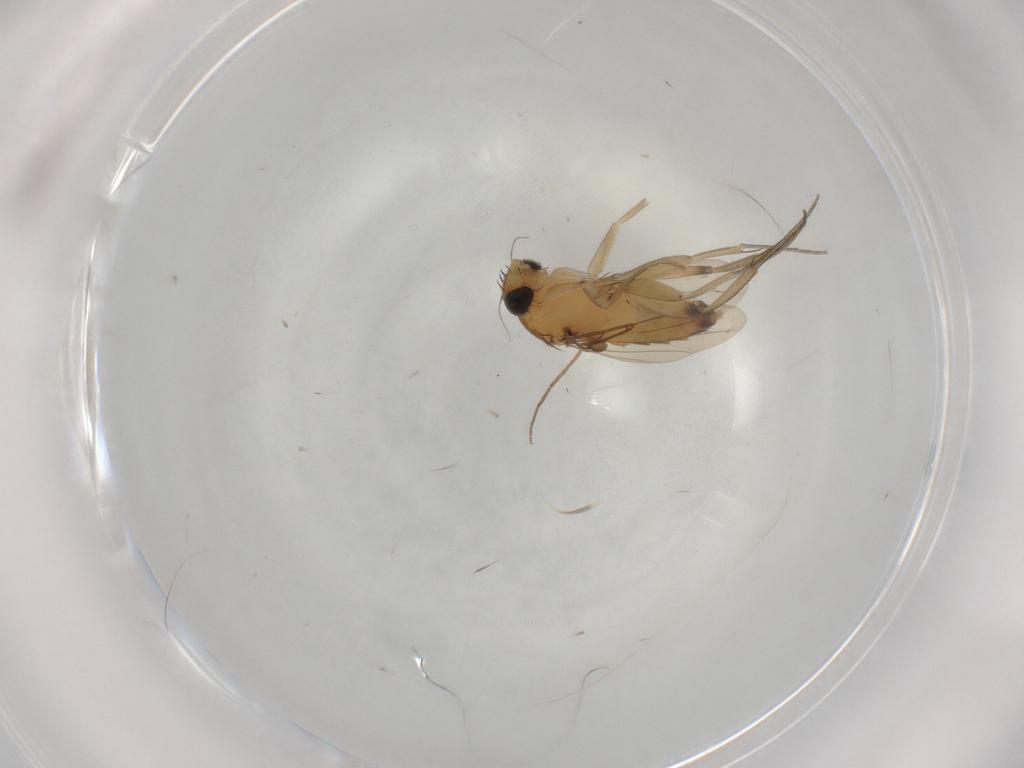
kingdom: Animalia
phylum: Arthropoda
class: Insecta
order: Diptera
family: Chironomidae
